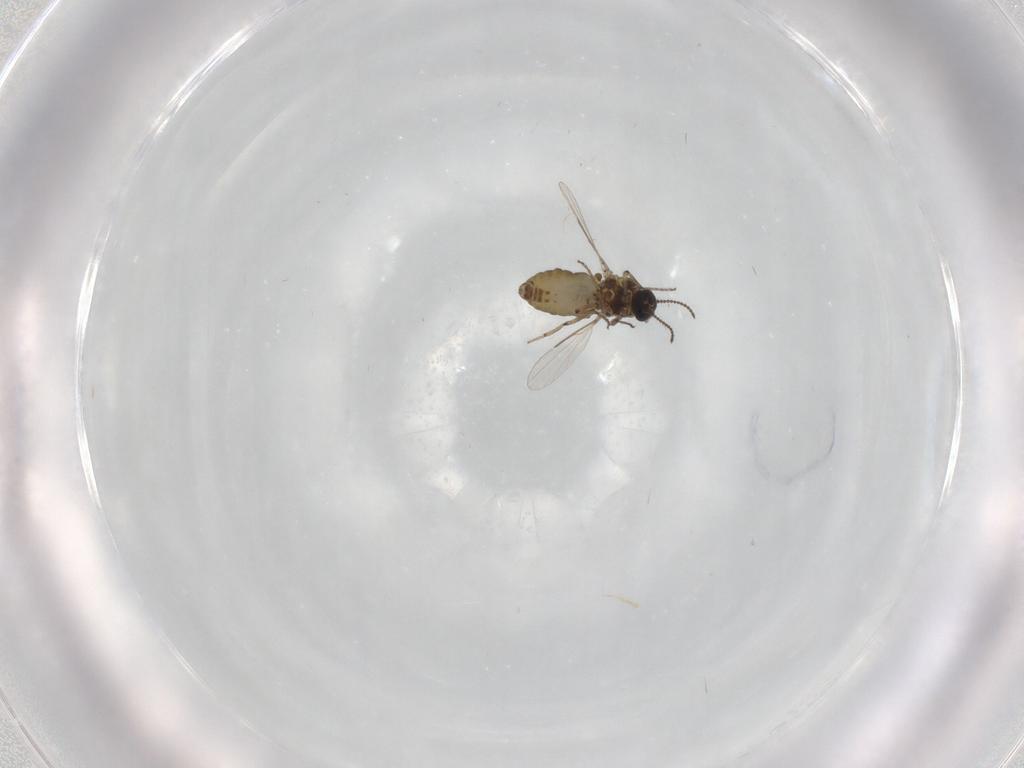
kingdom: Animalia
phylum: Arthropoda
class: Insecta
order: Diptera
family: Ceratopogonidae
